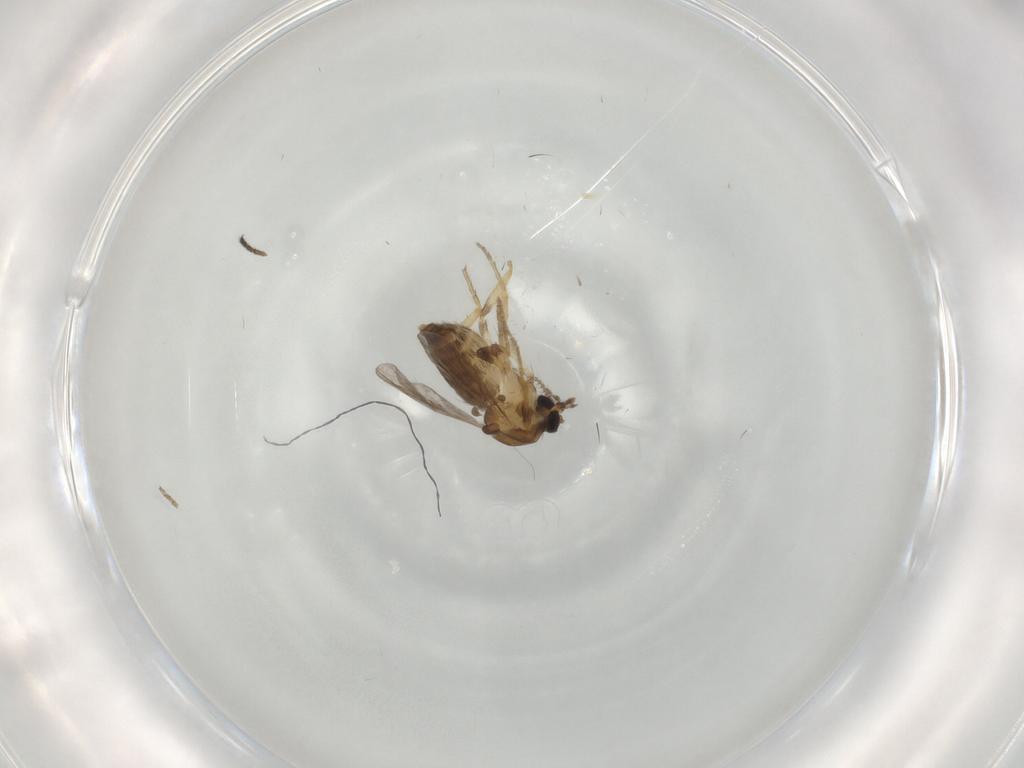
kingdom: Animalia
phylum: Arthropoda
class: Insecta
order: Diptera
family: Ceratopogonidae
